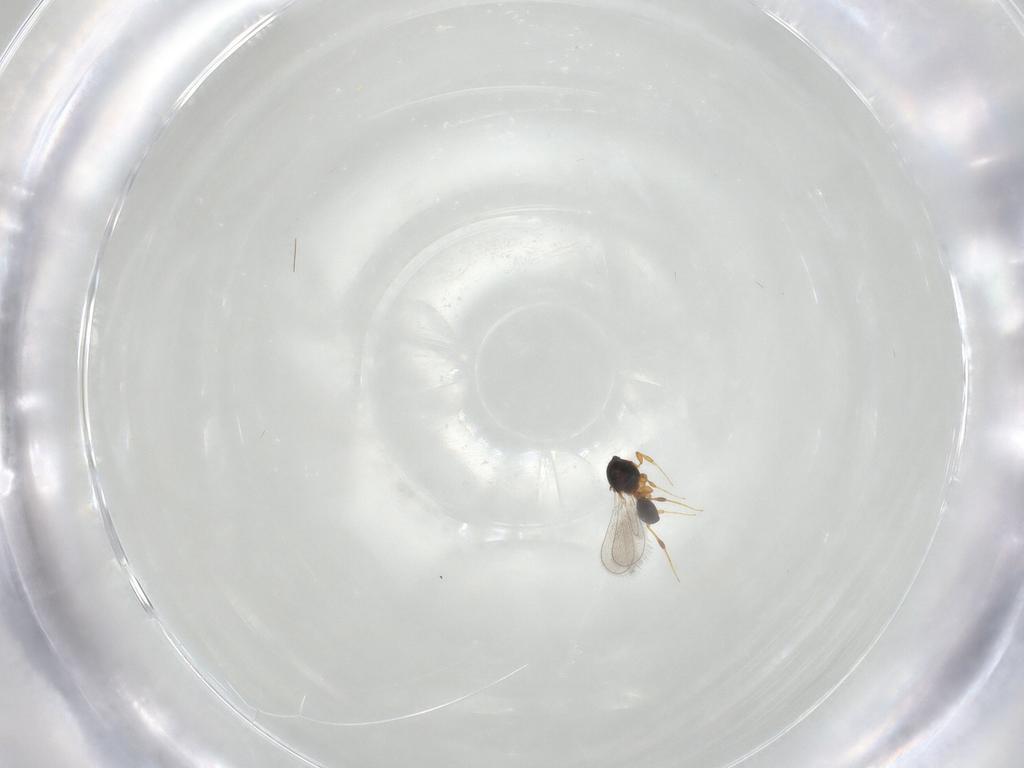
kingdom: Animalia
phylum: Arthropoda
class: Insecta
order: Hymenoptera
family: Platygastridae
